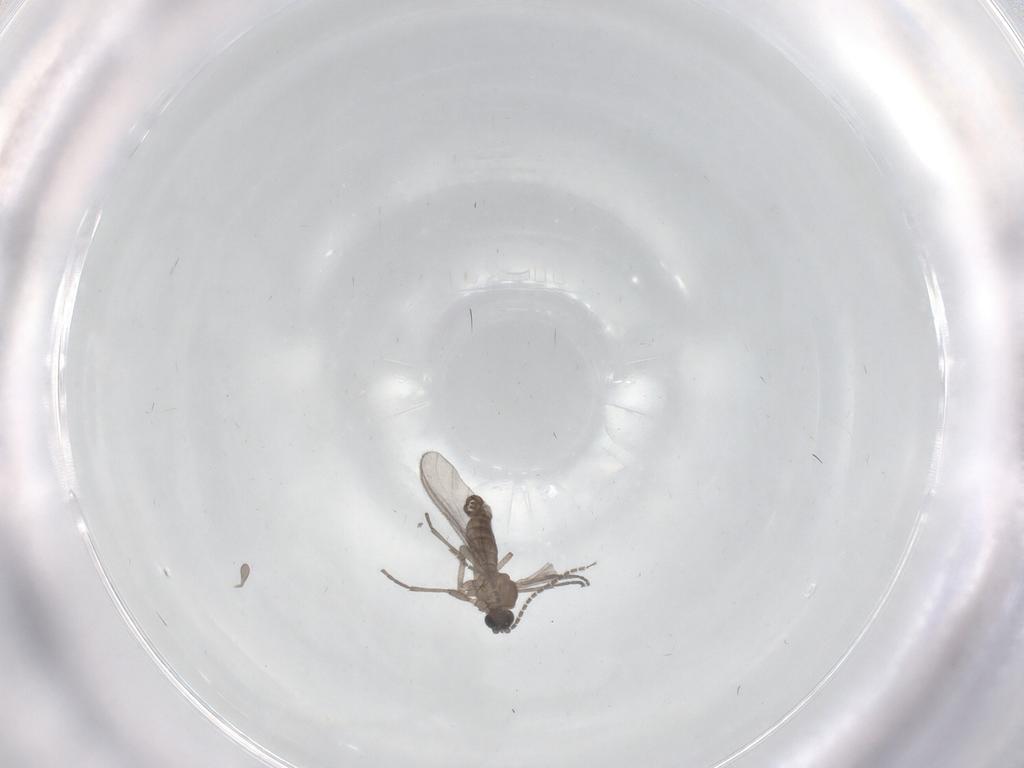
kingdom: Animalia
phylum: Arthropoda
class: Insecta
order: Diptera
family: Sciaridae
